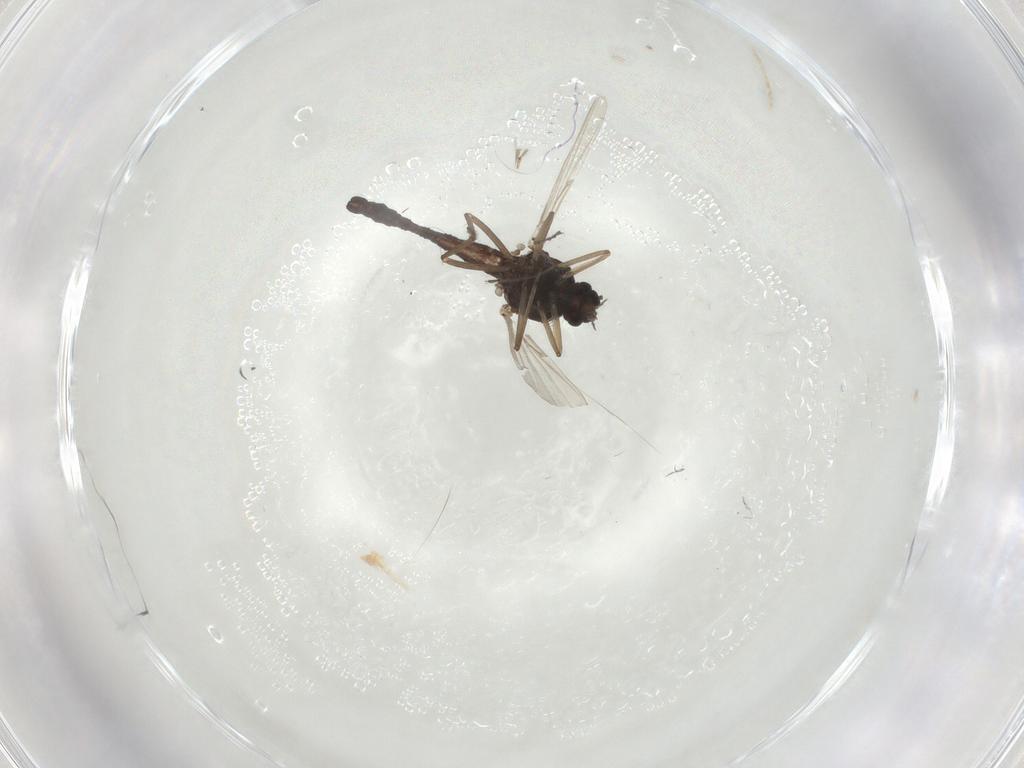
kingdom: Animalia
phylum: Arthropoda
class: Insecta
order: Diptera
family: Ceratopogonidae
